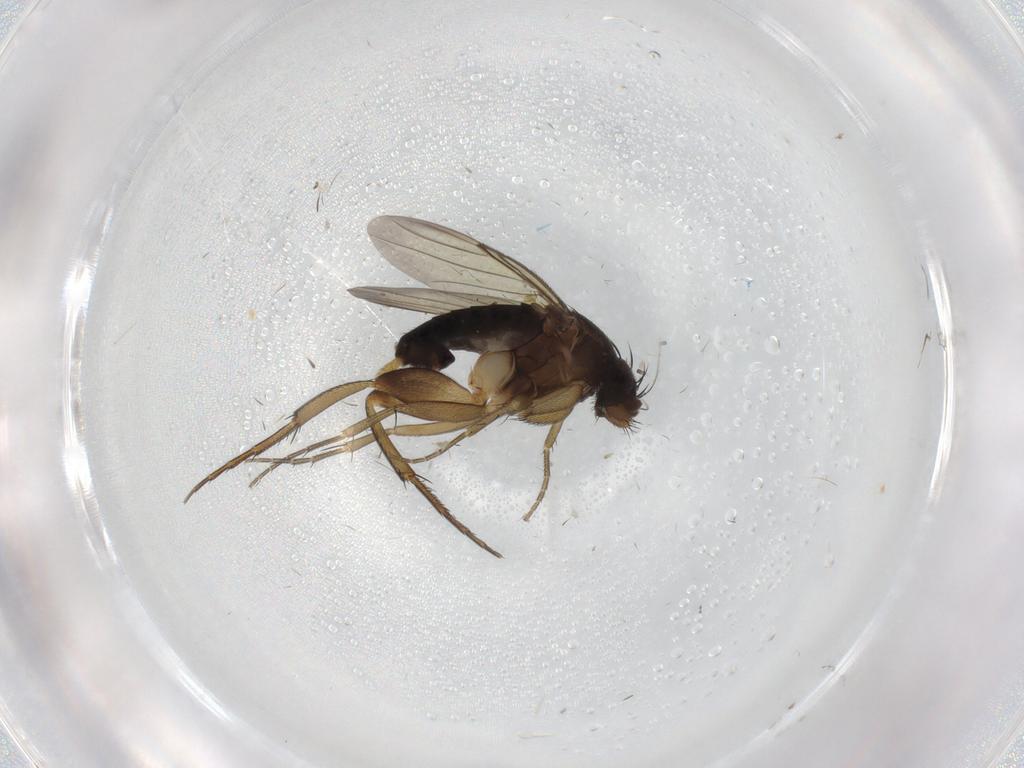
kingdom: Animalia
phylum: Arthropoda
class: Insecta
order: Diptera
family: Phoridae
